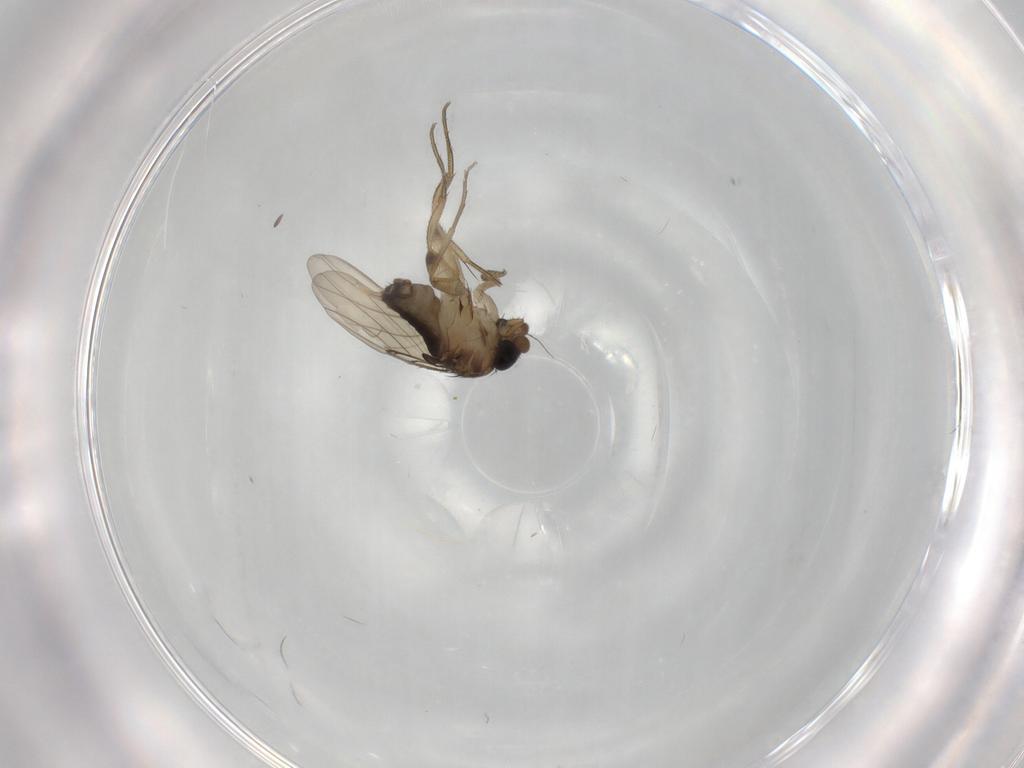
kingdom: Animalia
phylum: Arthropoda
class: Insecta
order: Diptera
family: Phoridae
